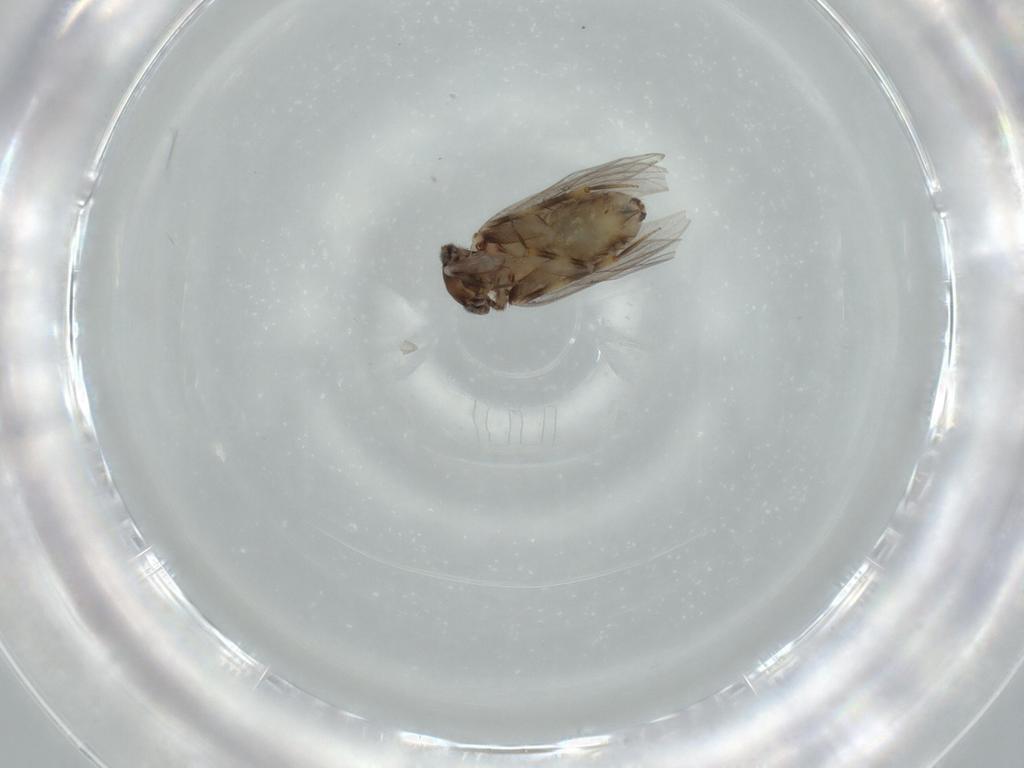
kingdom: Animalia
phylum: Arthropoda
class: Insecta
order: Psocodea
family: Lepidopsocidae
